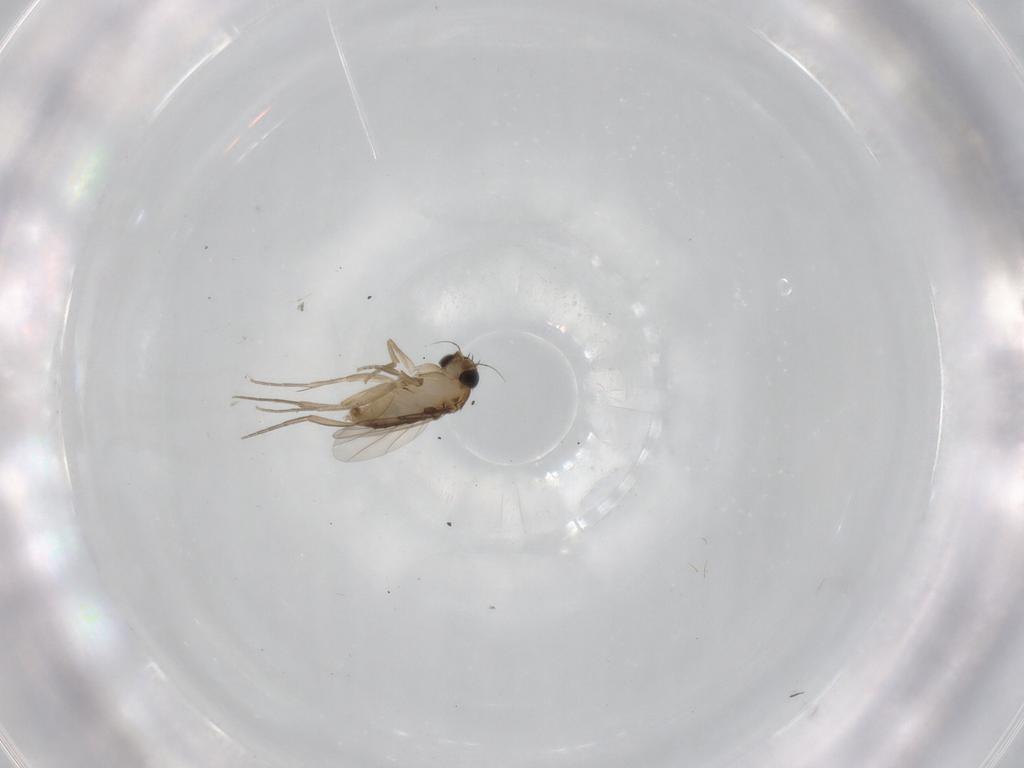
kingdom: Animalia
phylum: Arthropoda
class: Insecta
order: Diptera
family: Phoridae
